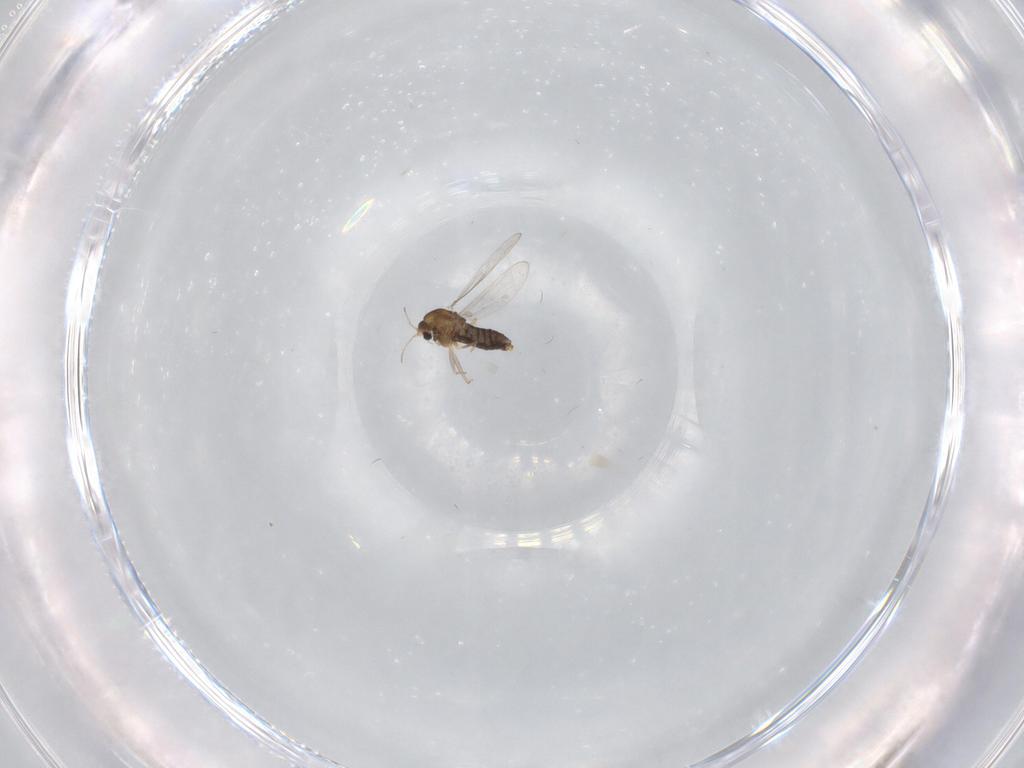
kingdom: Animalia
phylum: Arthropoda
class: Insecta
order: Diptera
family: Chironomidae
